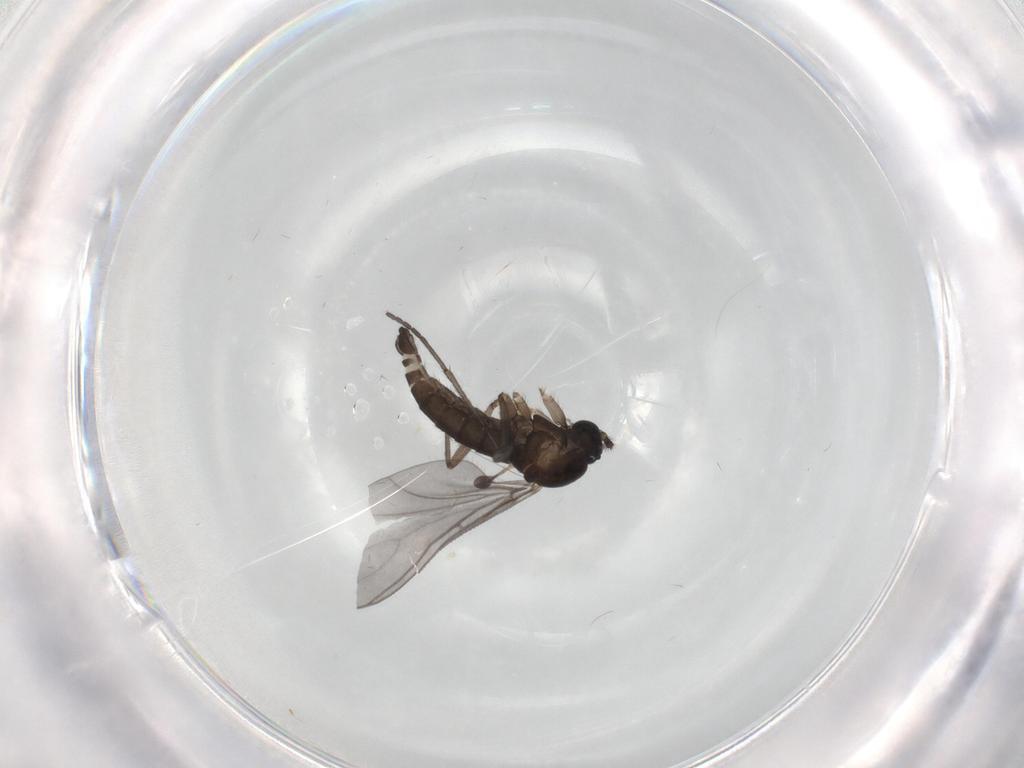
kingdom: Animalia
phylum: Arthropoda
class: Insecta
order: Diptera
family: Sciaridae
